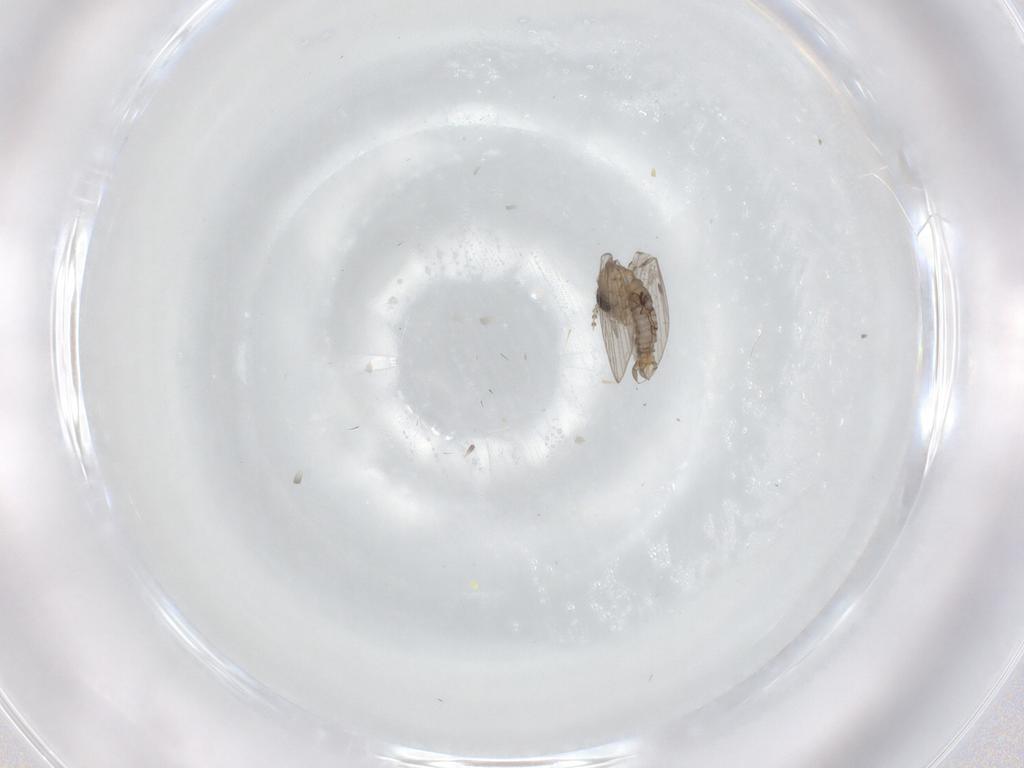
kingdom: Animalia
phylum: Arthropoda
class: Insecta
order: Diptera
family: Psychodidae
